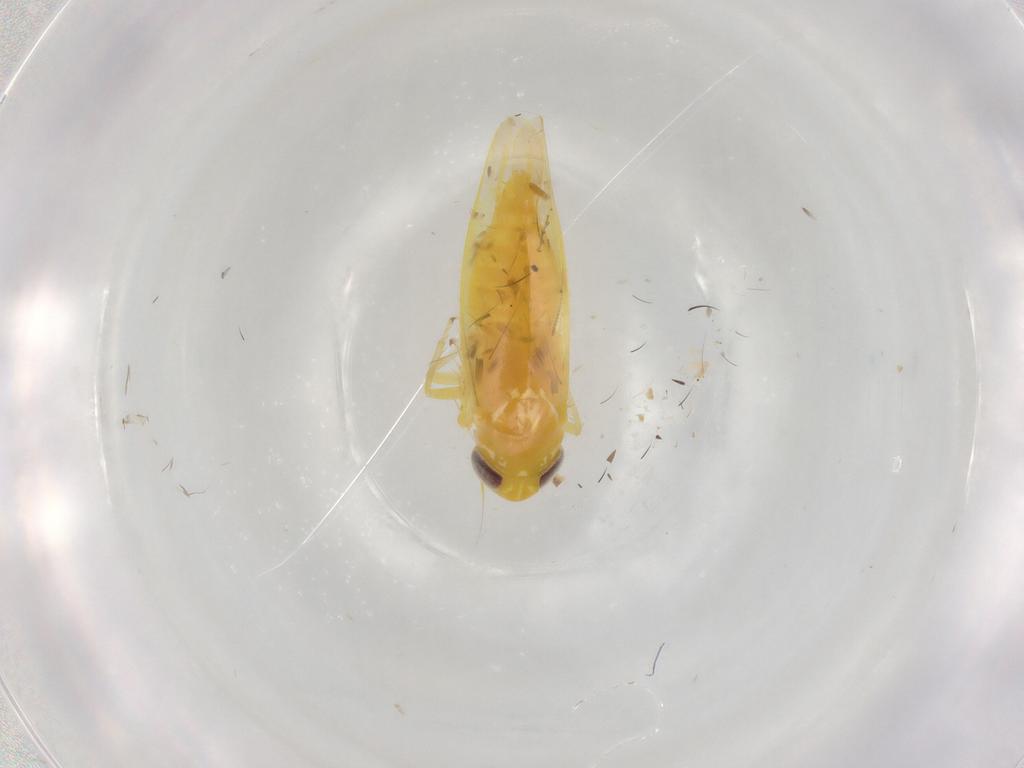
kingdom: Animalia
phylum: Arthropoda
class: Insecta
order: Hemiptera
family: Cicadellidae
